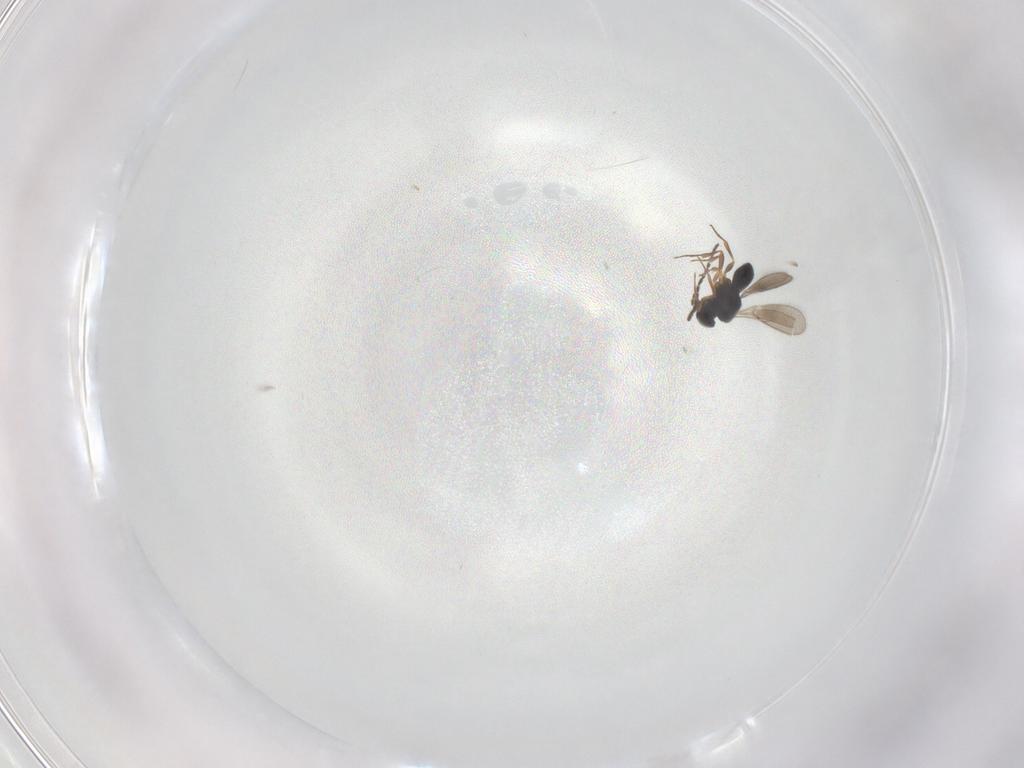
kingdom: Animalia
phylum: Arthropoda
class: Insecta
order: Hymenoptera
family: Scelionidae
